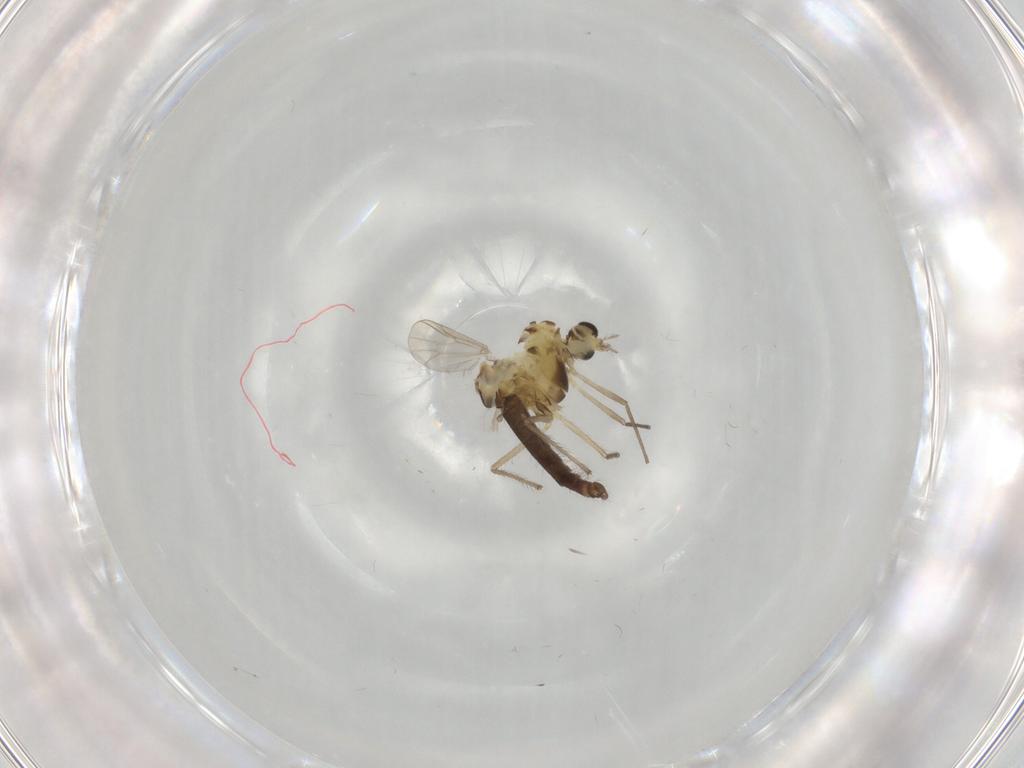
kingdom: Animalia
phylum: Arthropoda
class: Insecta
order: Diptera
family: Chironomidae
